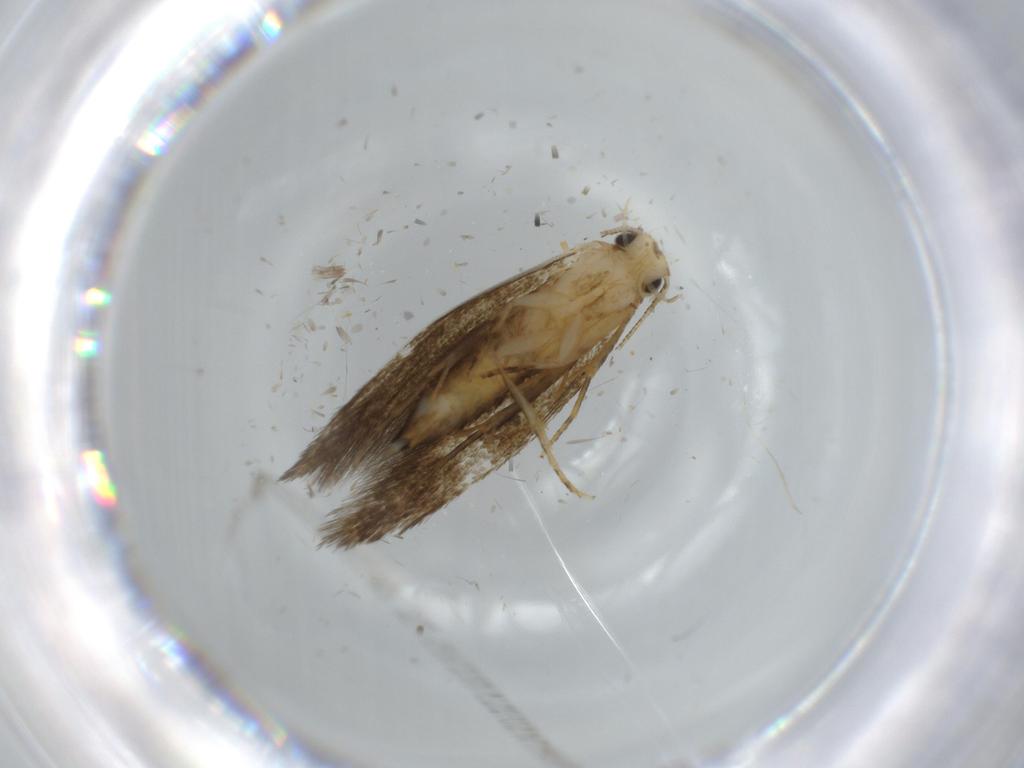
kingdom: Animalia
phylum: Arthropoda
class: Insecta
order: Lepidoptera
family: Tineidae
